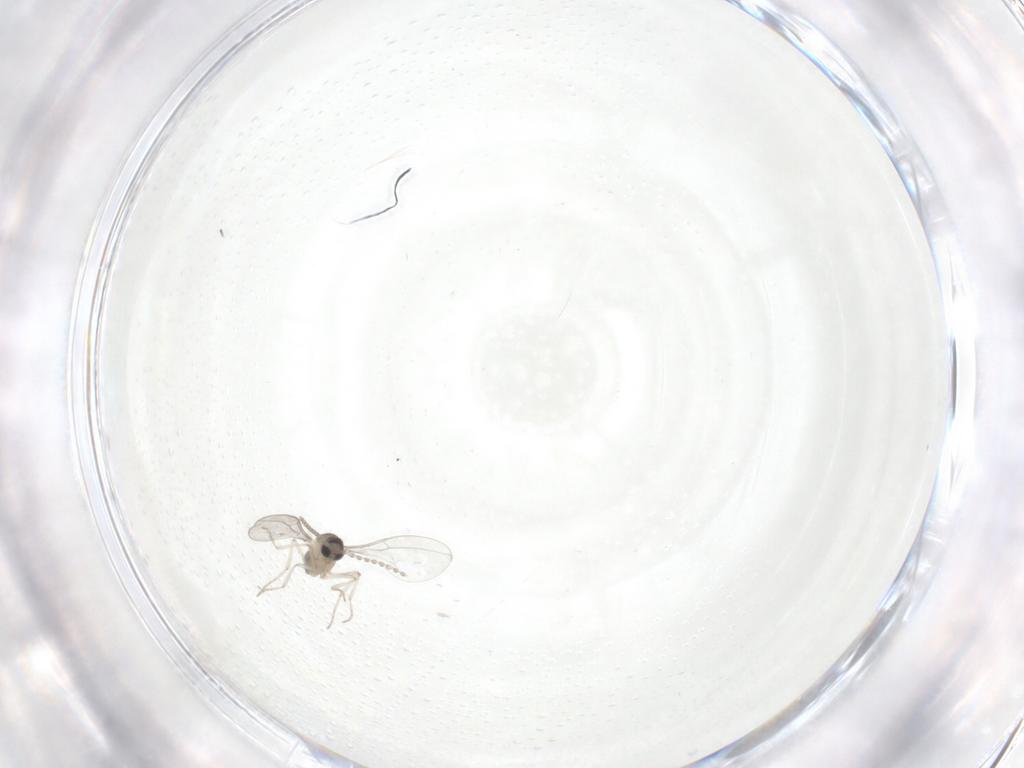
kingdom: Animalia
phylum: Arthropoda
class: Insecta
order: Diptera
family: Cecidomyiidae
